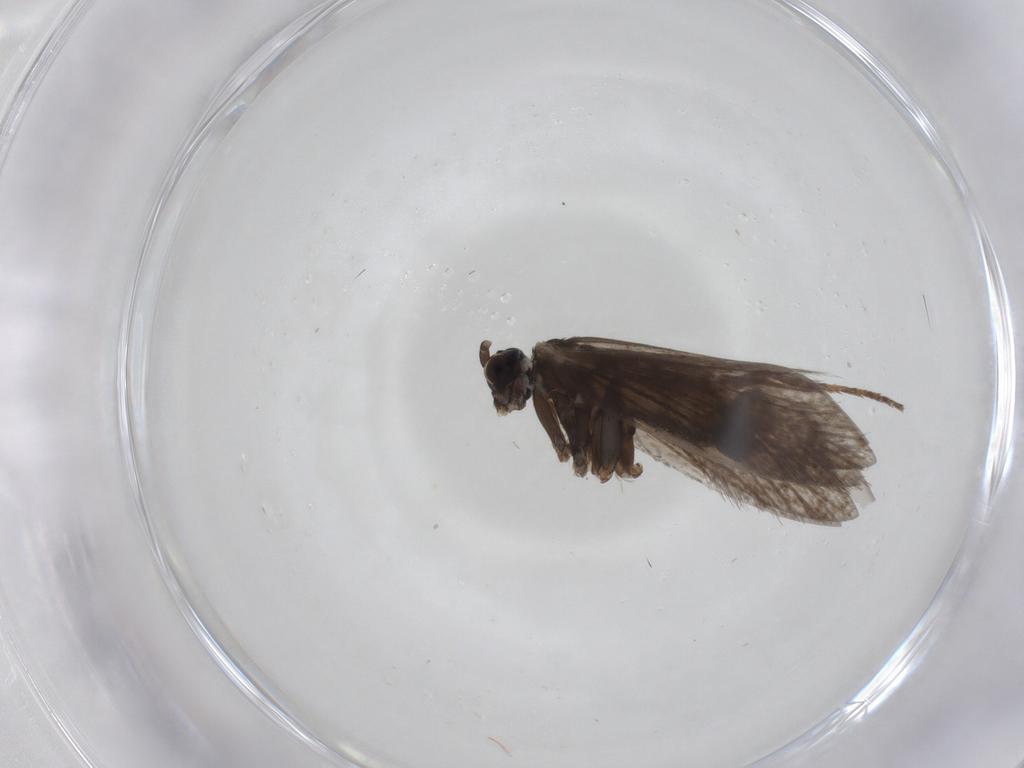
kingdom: Animalia
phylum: Arthropoda
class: Insecta
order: Lepidoptera
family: Micropterigidae
